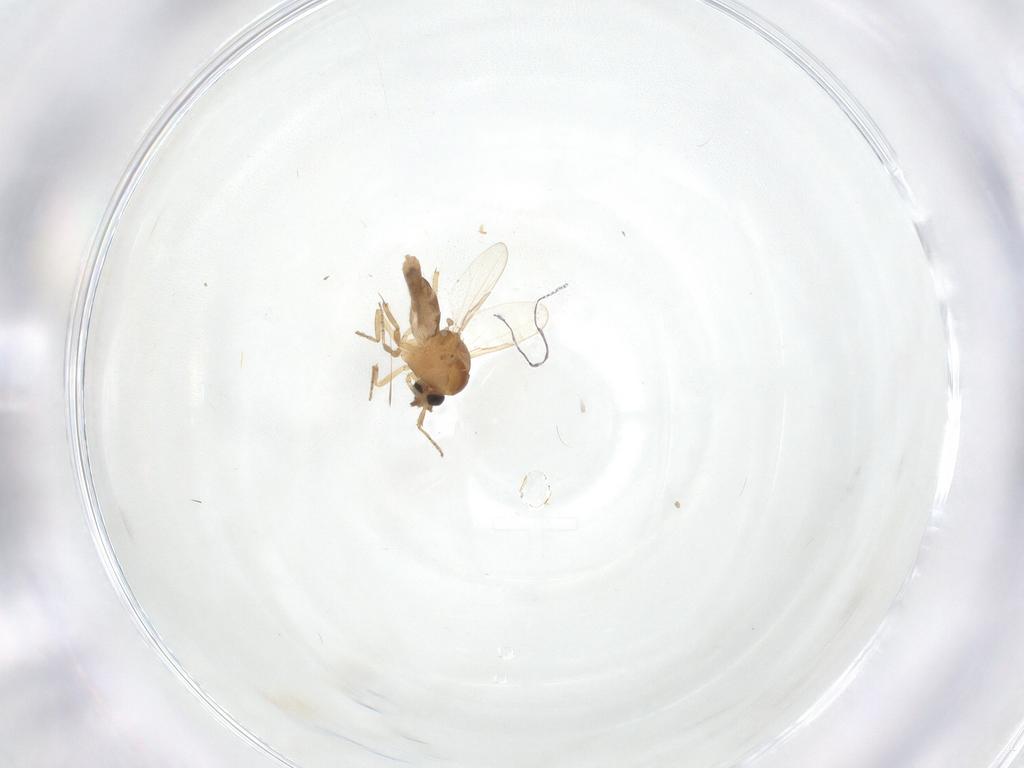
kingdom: Animalia
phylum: Arthropoda
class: Insecta
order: Diptera
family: Ceratopogonidae
